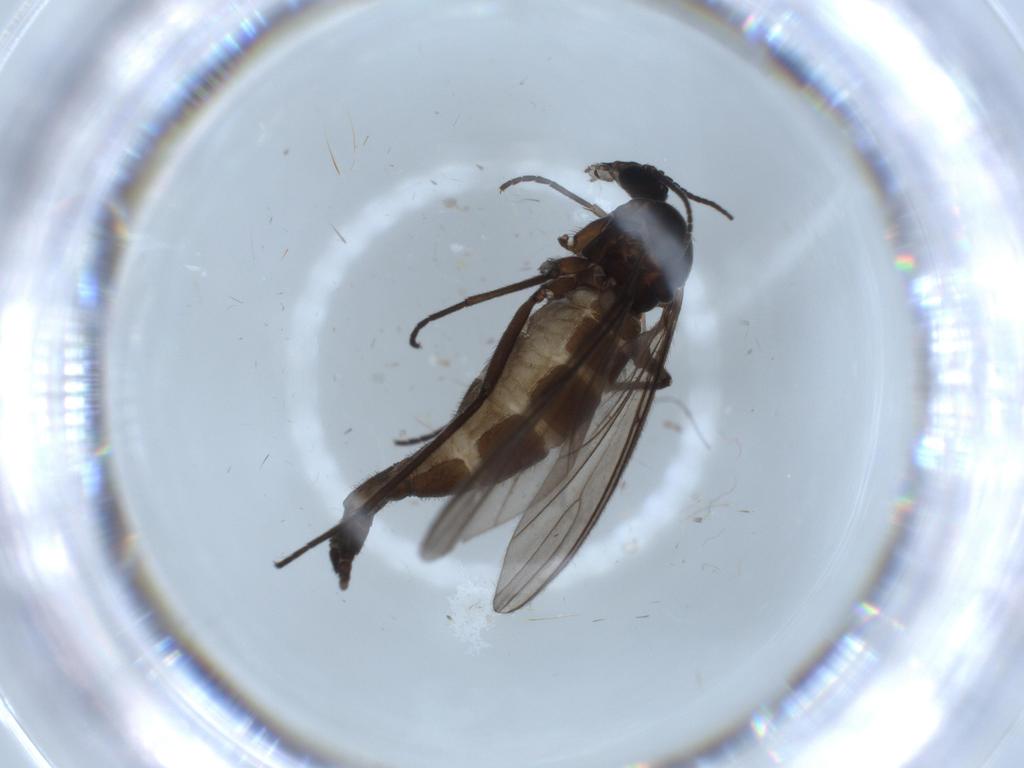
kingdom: Animalia
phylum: Arthropoda
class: Insecta
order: Diptera
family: Sciaridae
